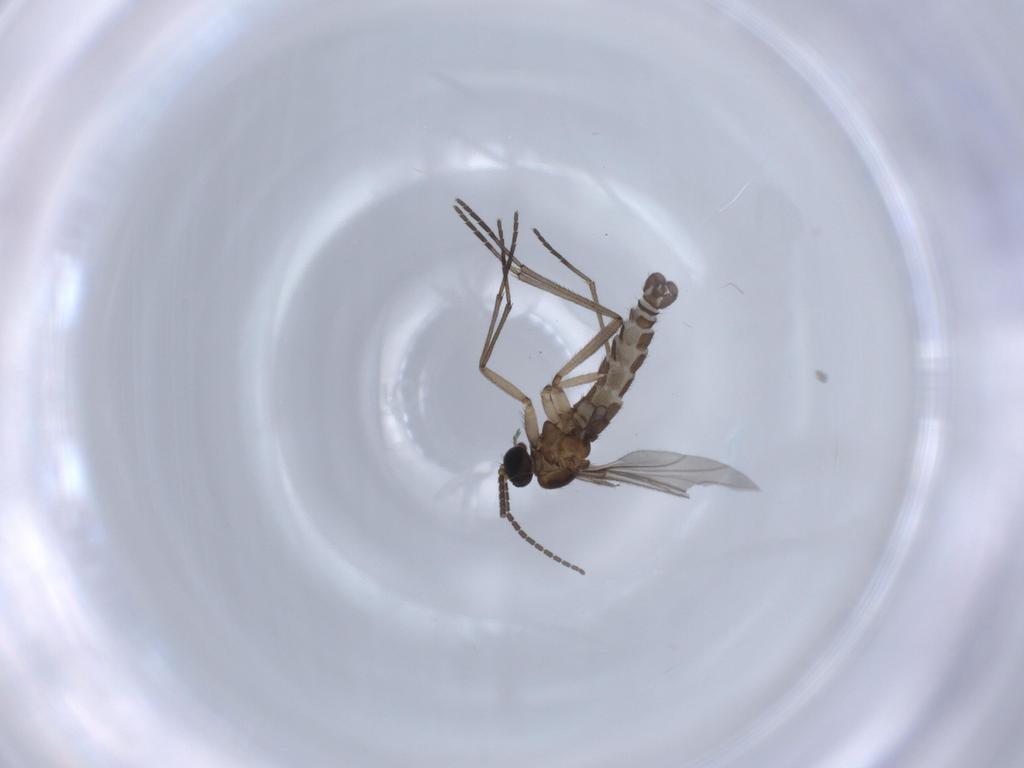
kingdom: Animalia
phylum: Arthropoda
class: Insecta
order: Diptera
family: Sciaridae
